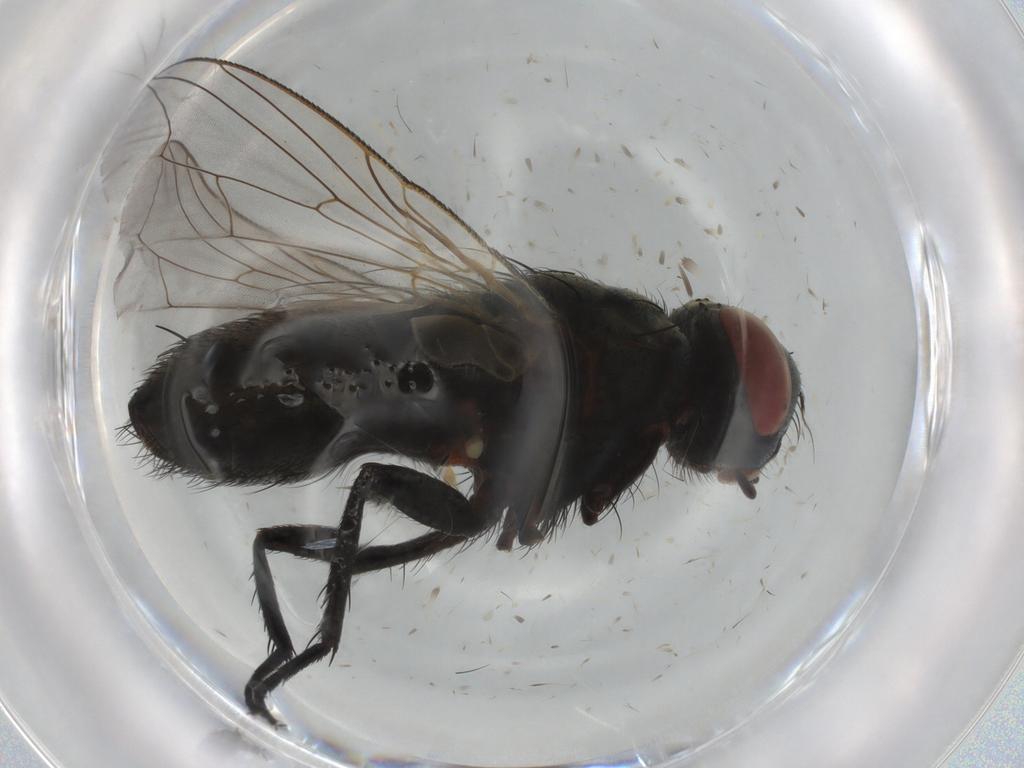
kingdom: Animalia
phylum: Arthropoda
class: Insecta
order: Diptera
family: Sarcophagidae
